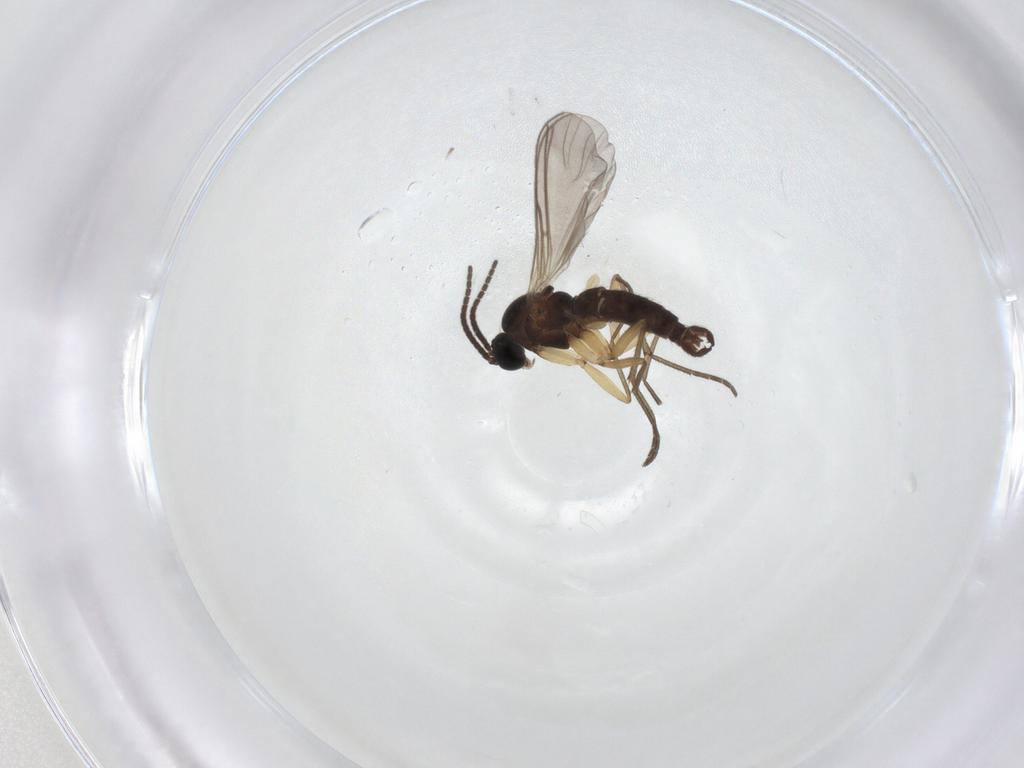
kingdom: Animalia
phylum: Arthropoda
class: Insecta
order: Diptera
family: Sciaridae
